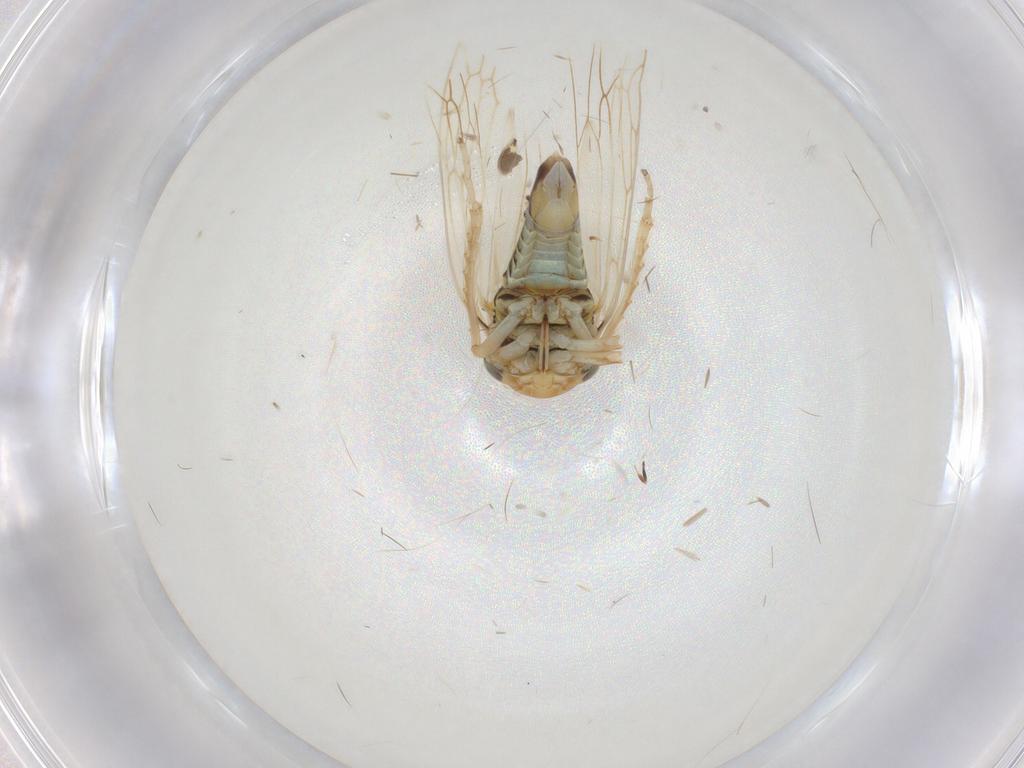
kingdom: Animalia
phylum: Arthropoda
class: Insecta
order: Hemiptera
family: Cicadellidae
